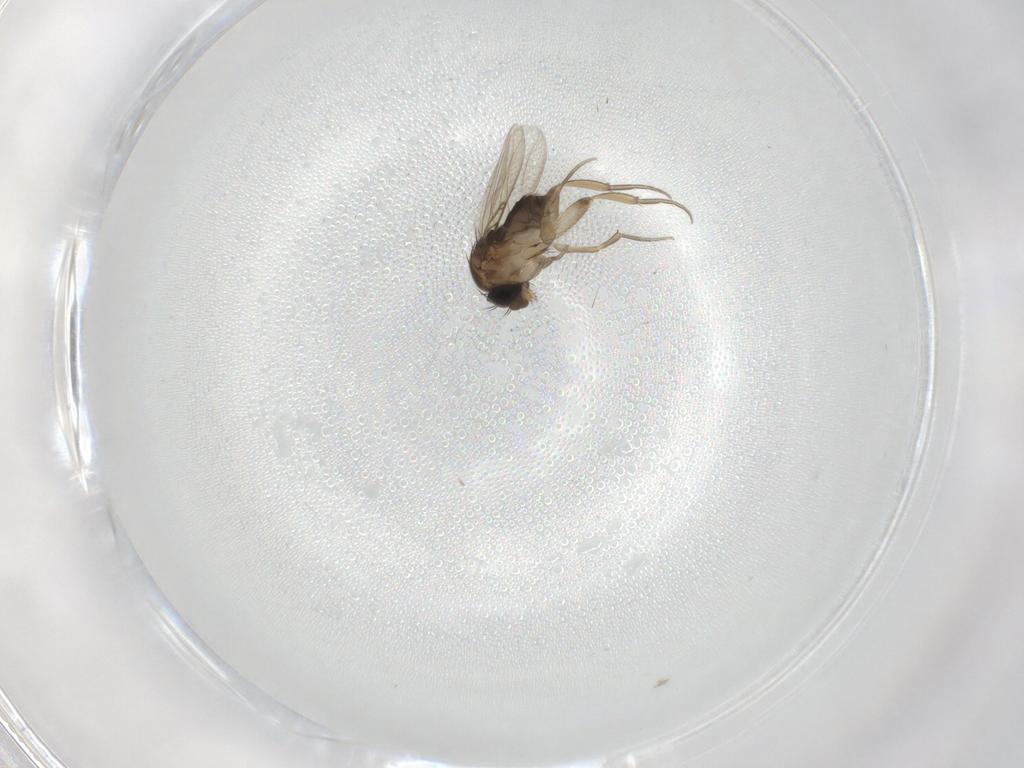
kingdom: Animalia
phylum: Arthropoda
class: Insecta
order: Diptera
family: Phoridae
